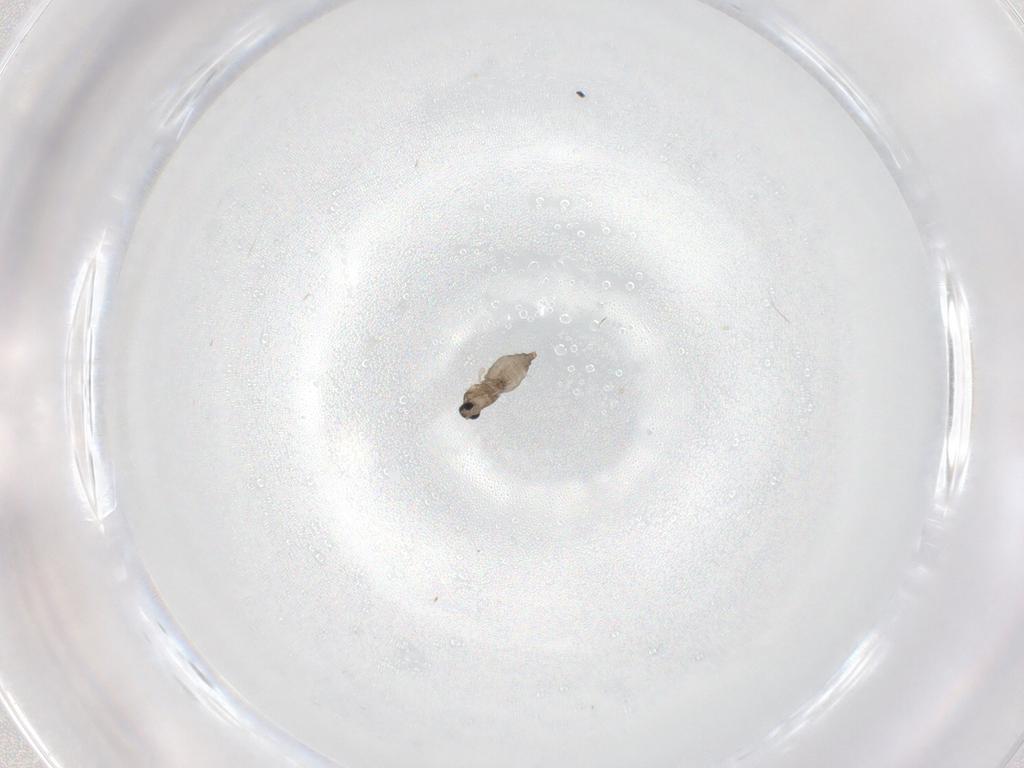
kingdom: Animalia
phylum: Arthropoda
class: Insecta
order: Diptera
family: Cecidomyiidae
